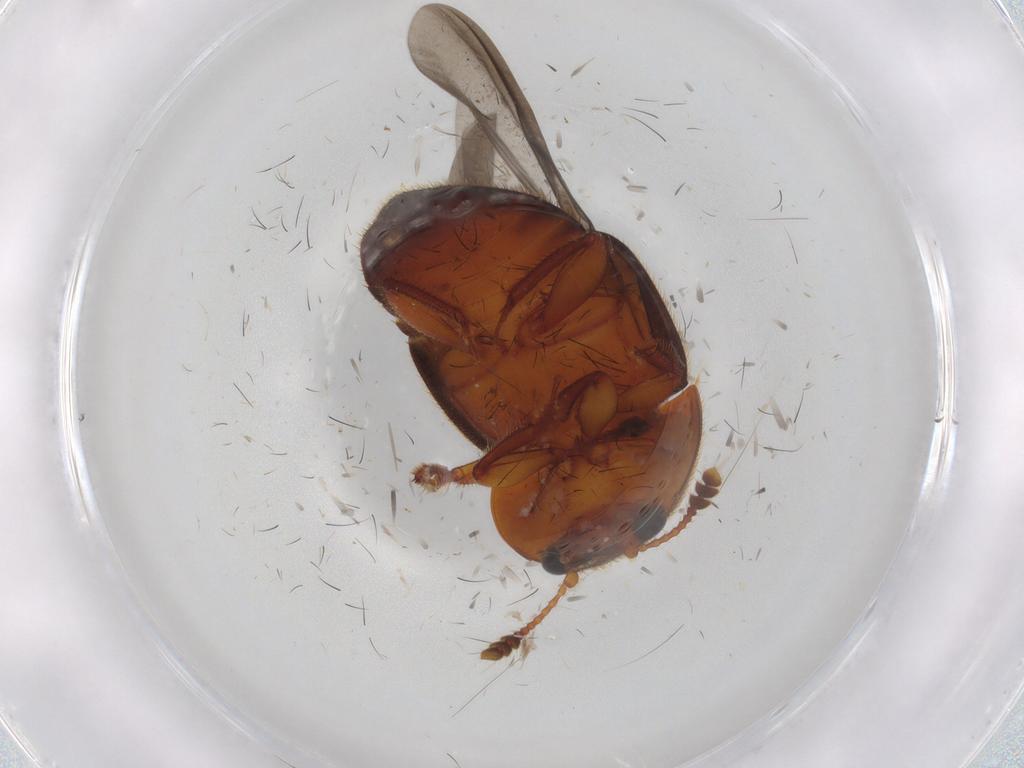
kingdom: Animalia
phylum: Arthropoda
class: Insecta
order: Coleoptera
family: Nitidulidae
